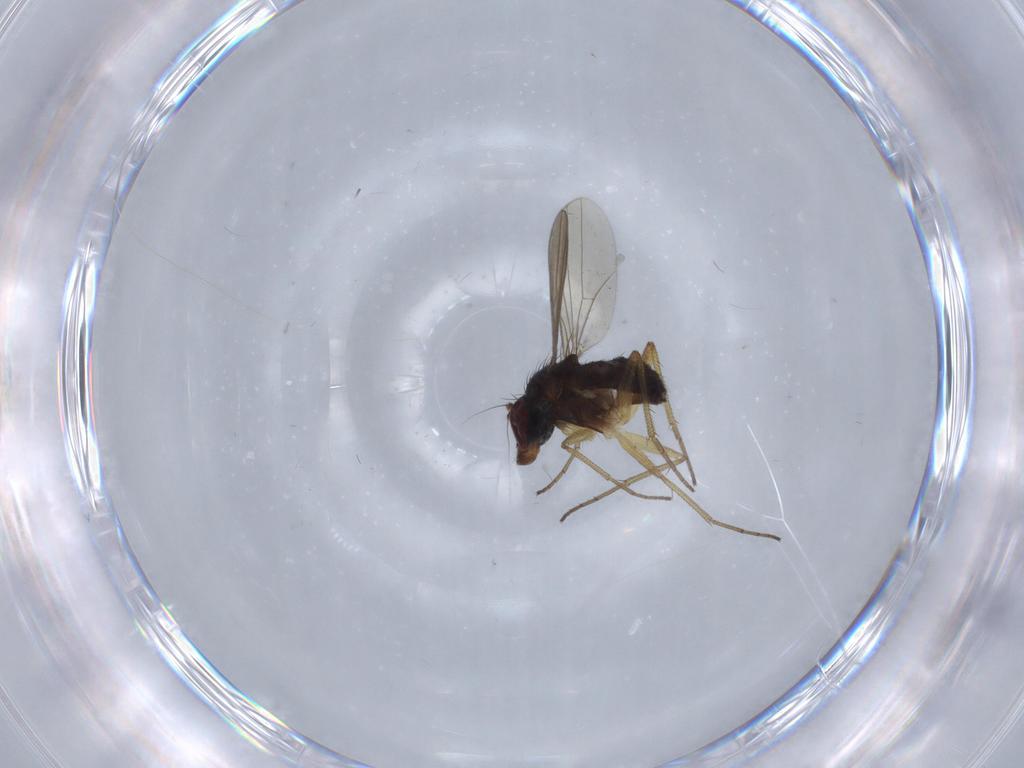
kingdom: Animalia
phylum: Arthropoda
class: Insecta
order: Diptera
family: Dolichopodidae
